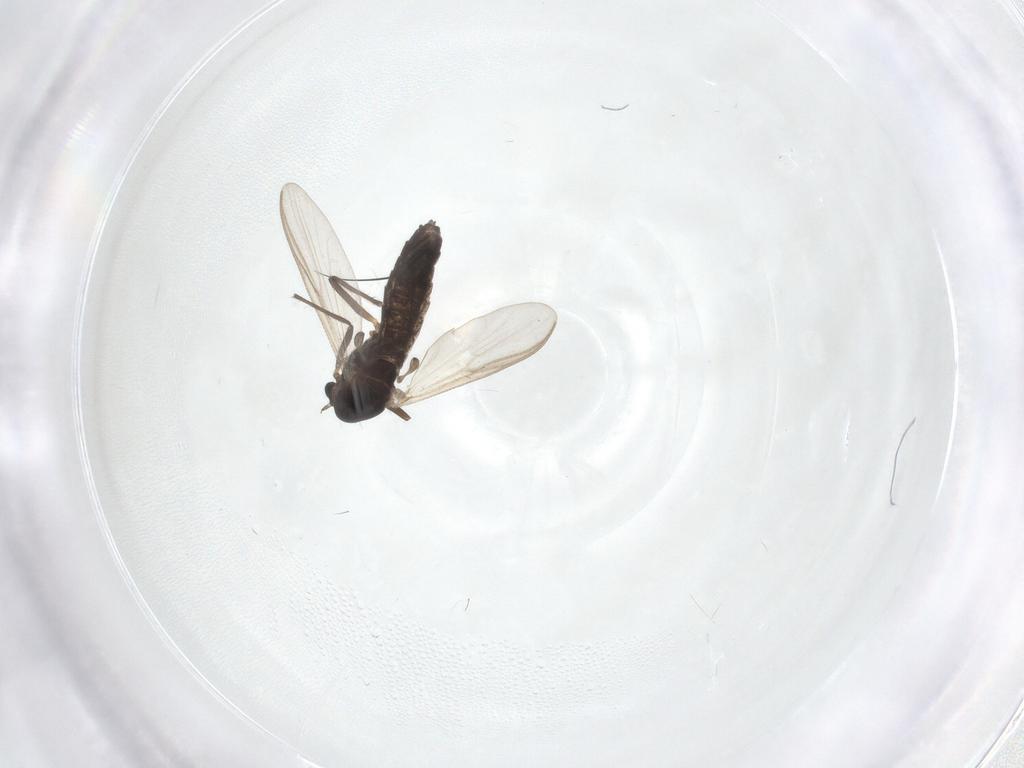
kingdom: Animalia
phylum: Arthropoda
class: Insecta
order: Diptera
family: Chironomidae
